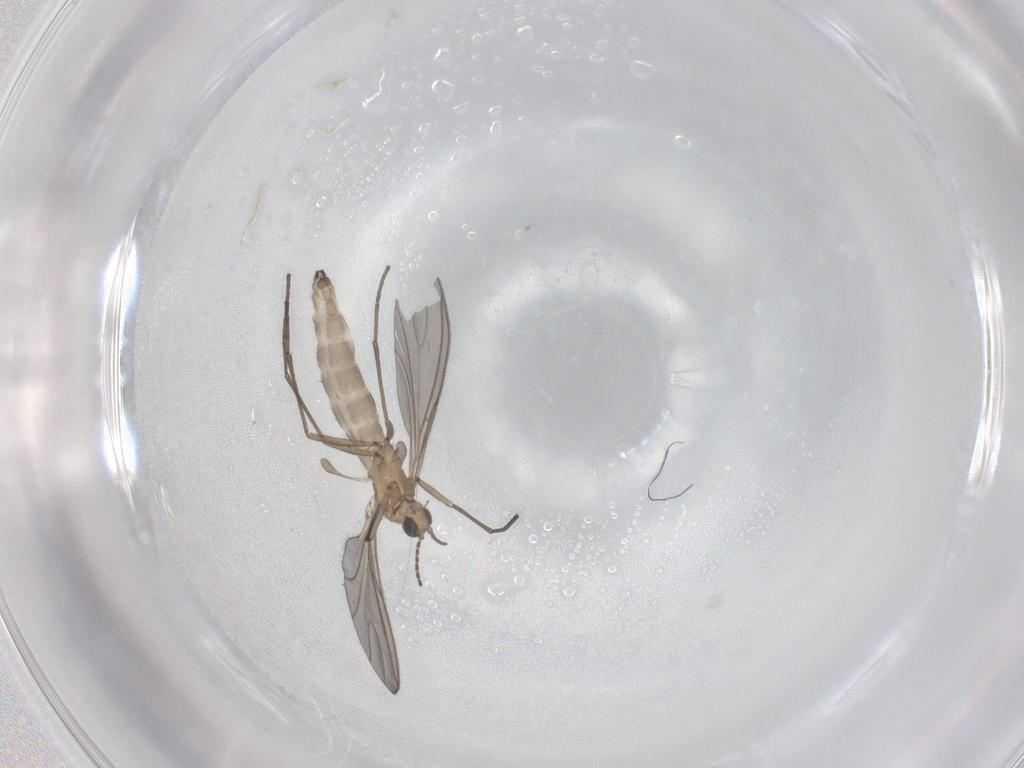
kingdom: Animalia
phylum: Arthropoda
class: Insecta
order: Diptera
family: Sciaridae
